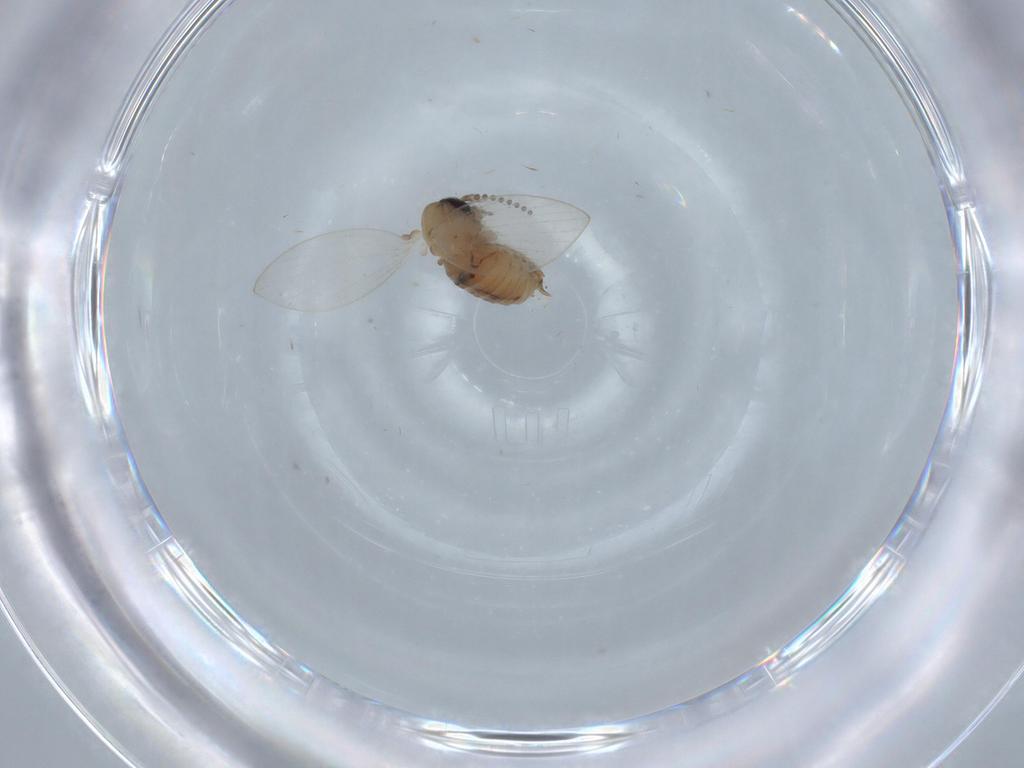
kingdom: Animalia
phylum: Arthropoda
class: Insecta
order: Diptera
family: Psychodidae
